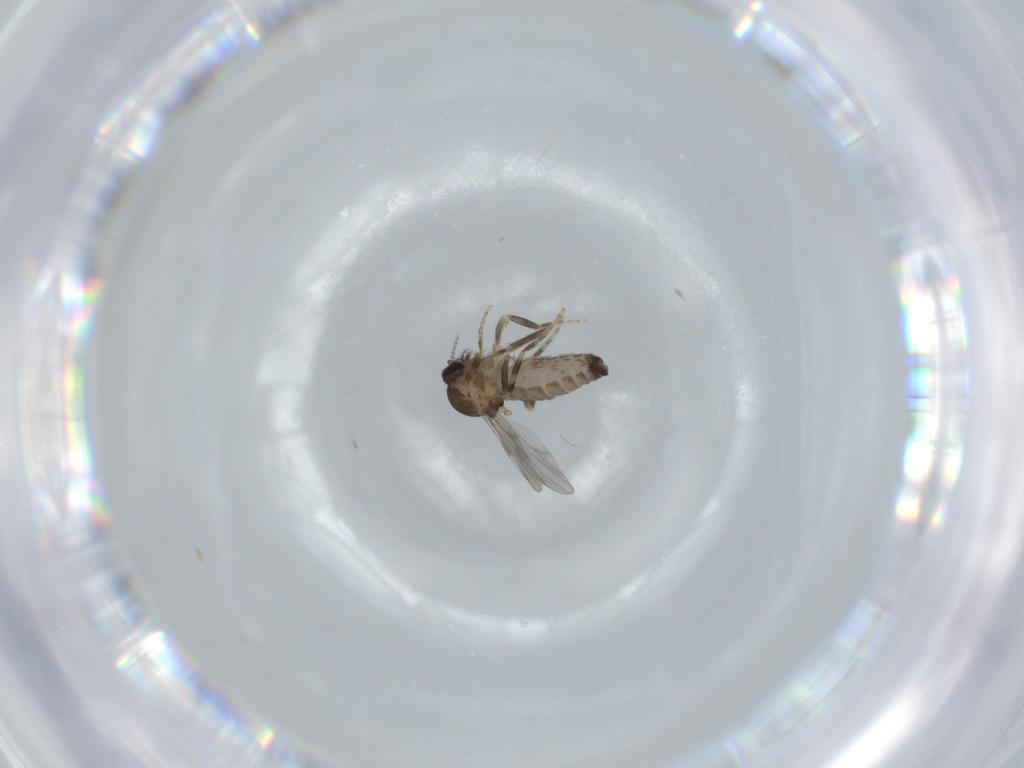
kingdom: Animalia
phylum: Arthropoda
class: Insecta
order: Diptera
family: Ceratopogonidae
